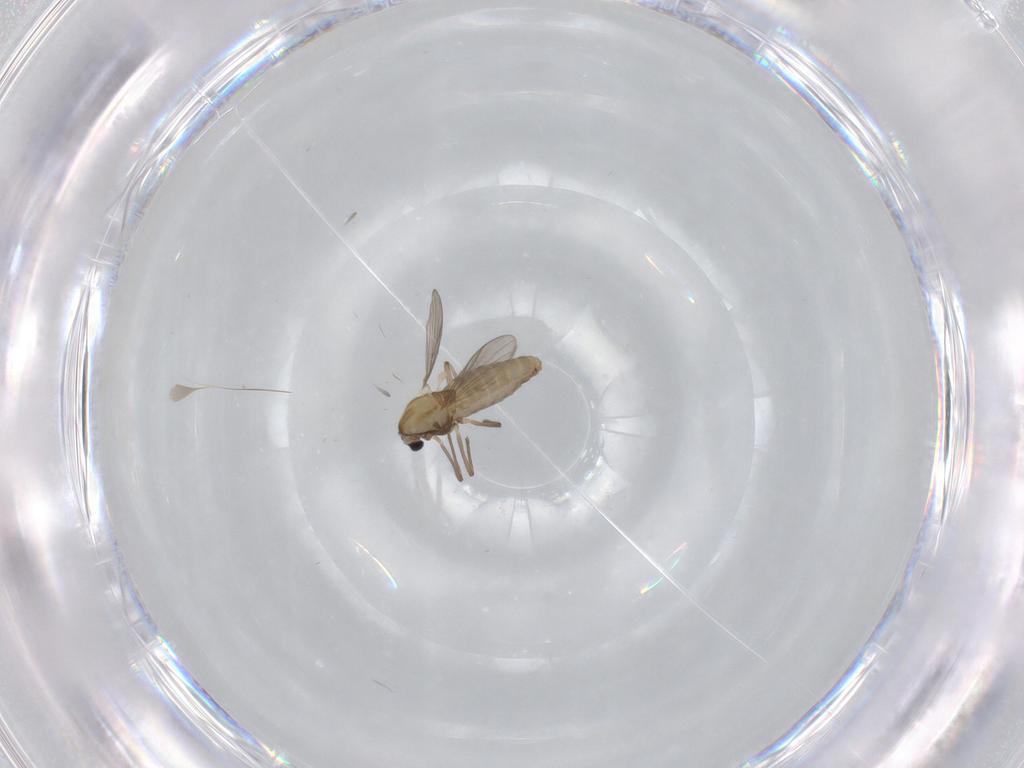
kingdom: Animalia
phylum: Arthropoda
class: Insecta
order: Diptera
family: Chironomidae
